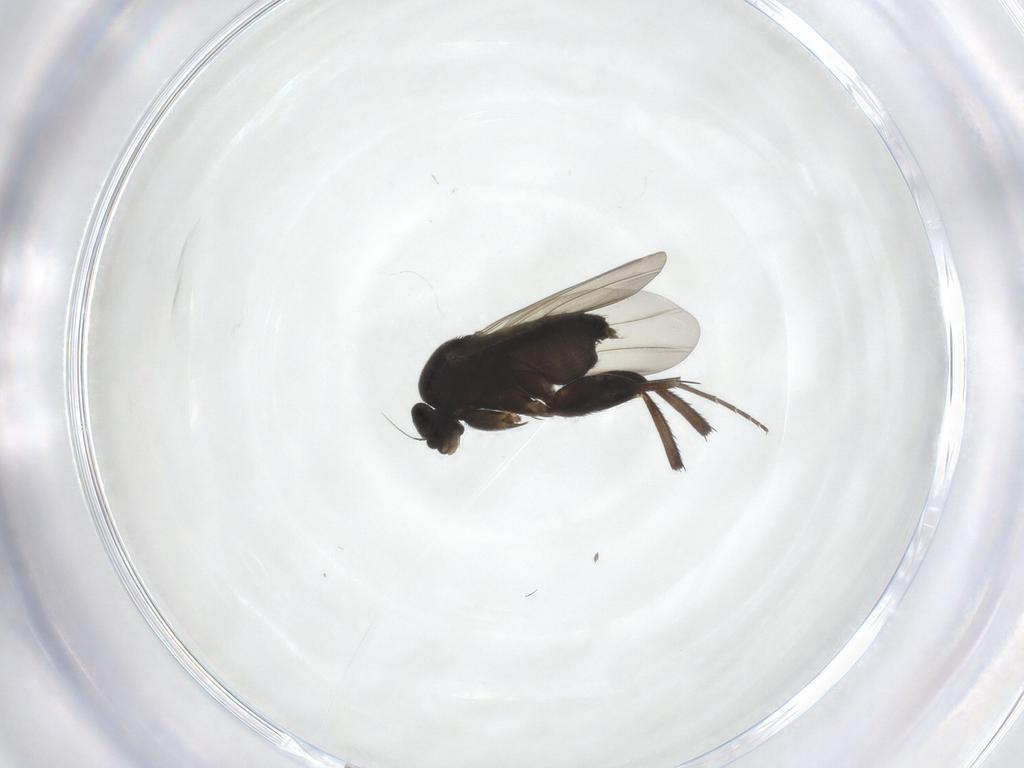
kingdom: Animalia
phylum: Arthropoda
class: Insecta
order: Diptera
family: Phoridae
